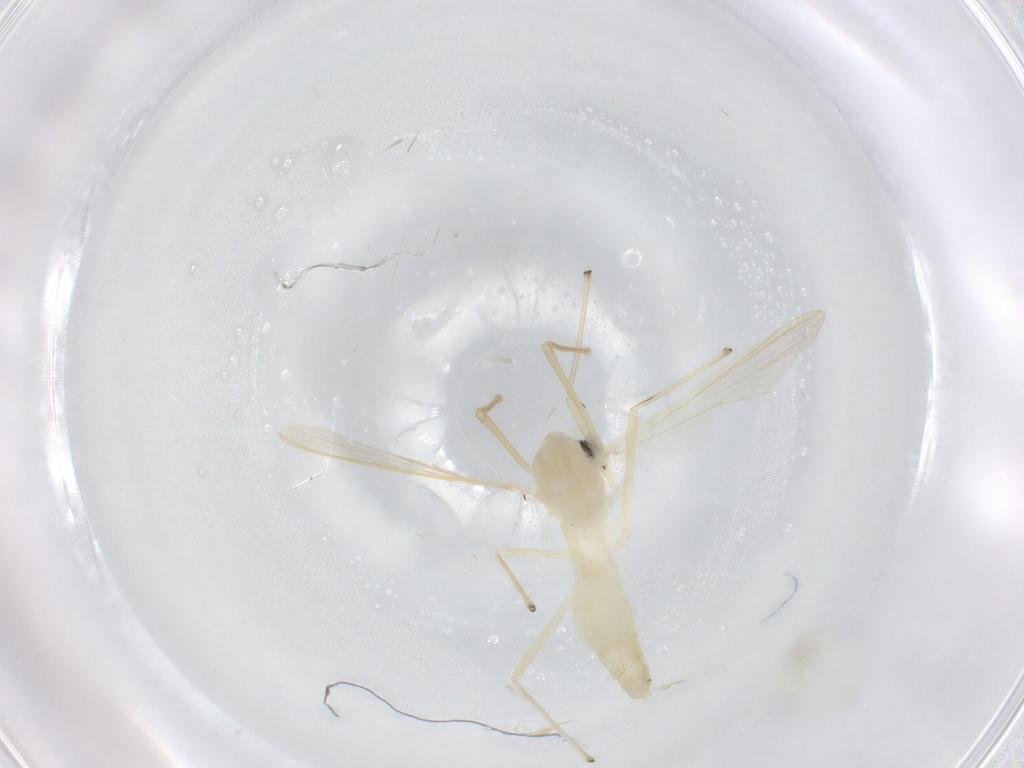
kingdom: Animalia
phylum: Arthropoda
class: Insecta
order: Diptera
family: Chironomidae
